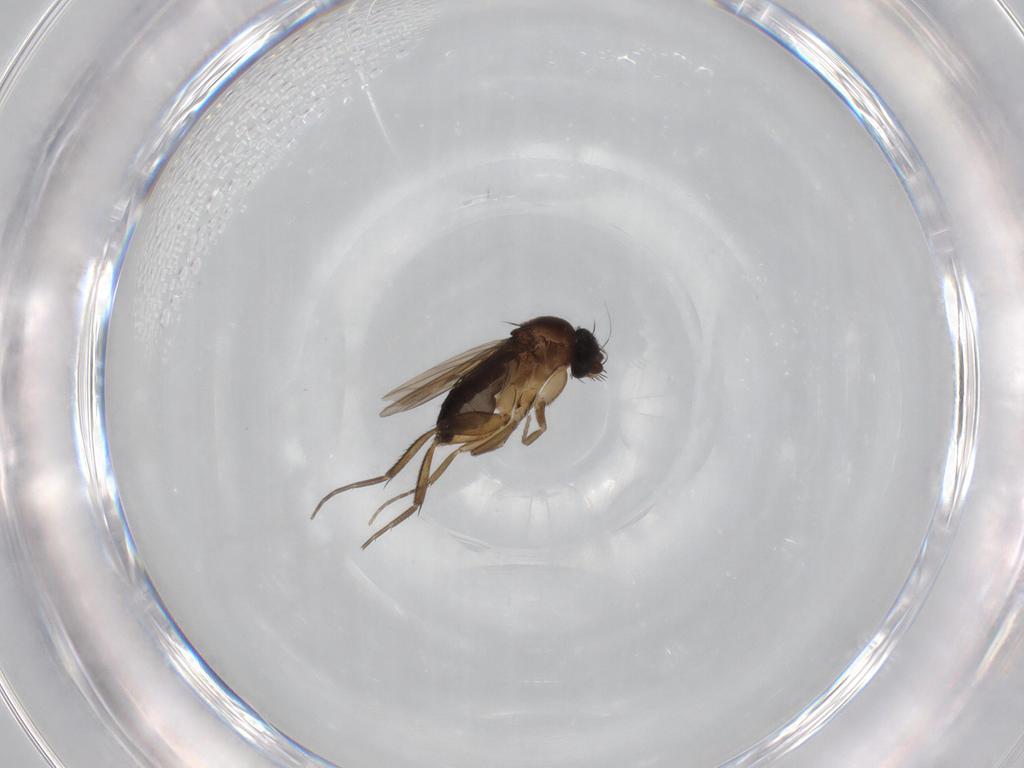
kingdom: Animalia
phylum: Arthropoda
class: Insecta
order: Diptera
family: Phoridae
